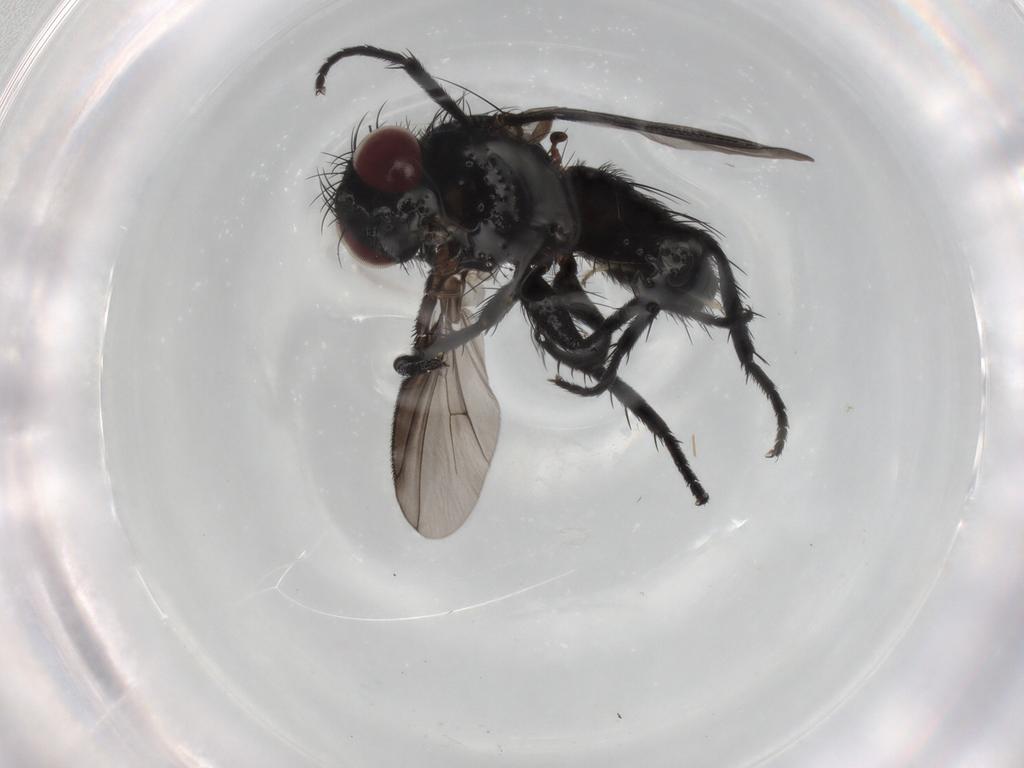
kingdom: Animalia
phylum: Arthropoda
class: Insecta
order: Diptera
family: Tachinidae
